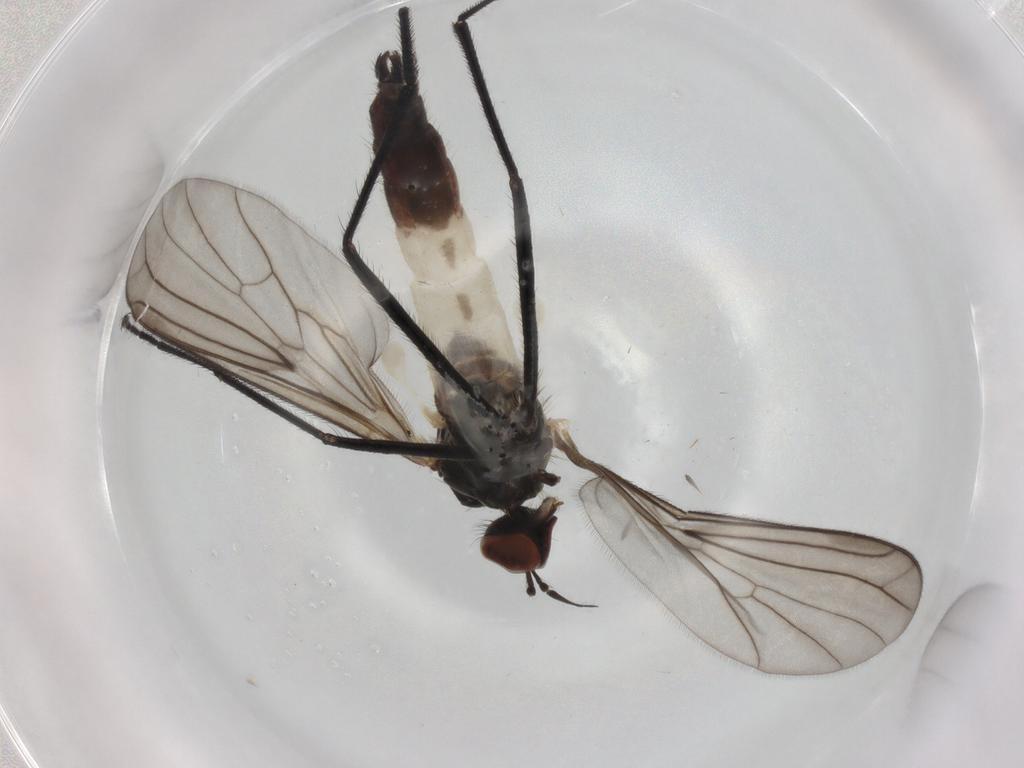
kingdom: Animalia
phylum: Arthropoda
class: Insecta
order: Diptera
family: Empididae
